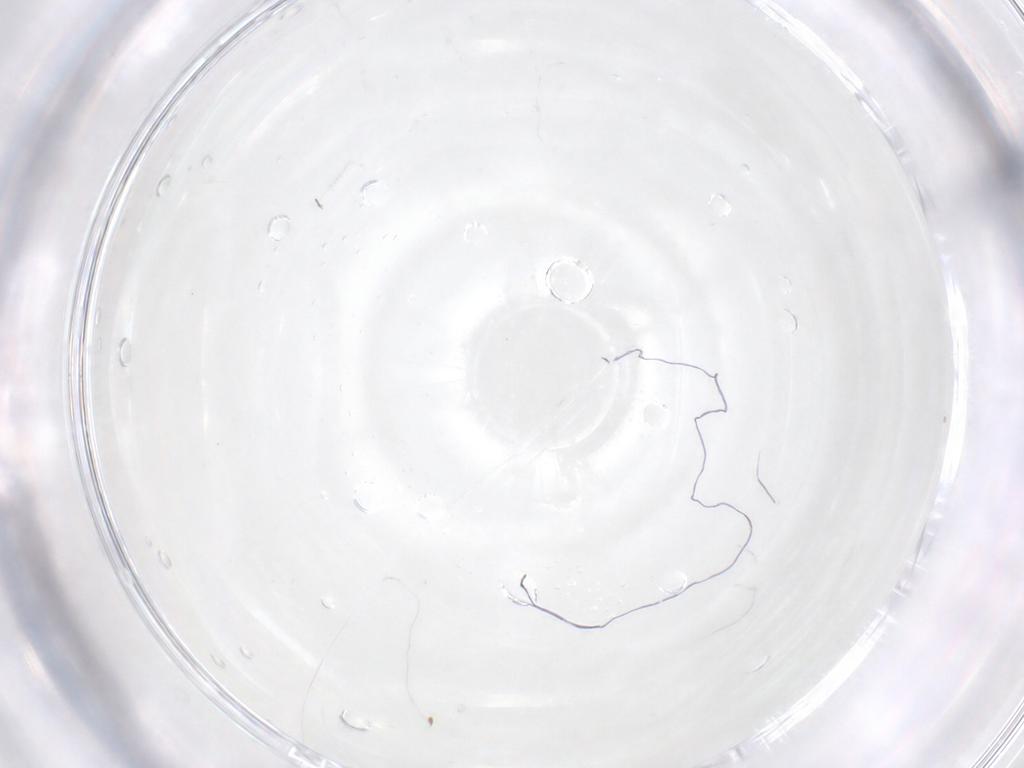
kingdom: Animalia
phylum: Arthropoda
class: Insecta
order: Lepidoptera
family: Gelechiidae
